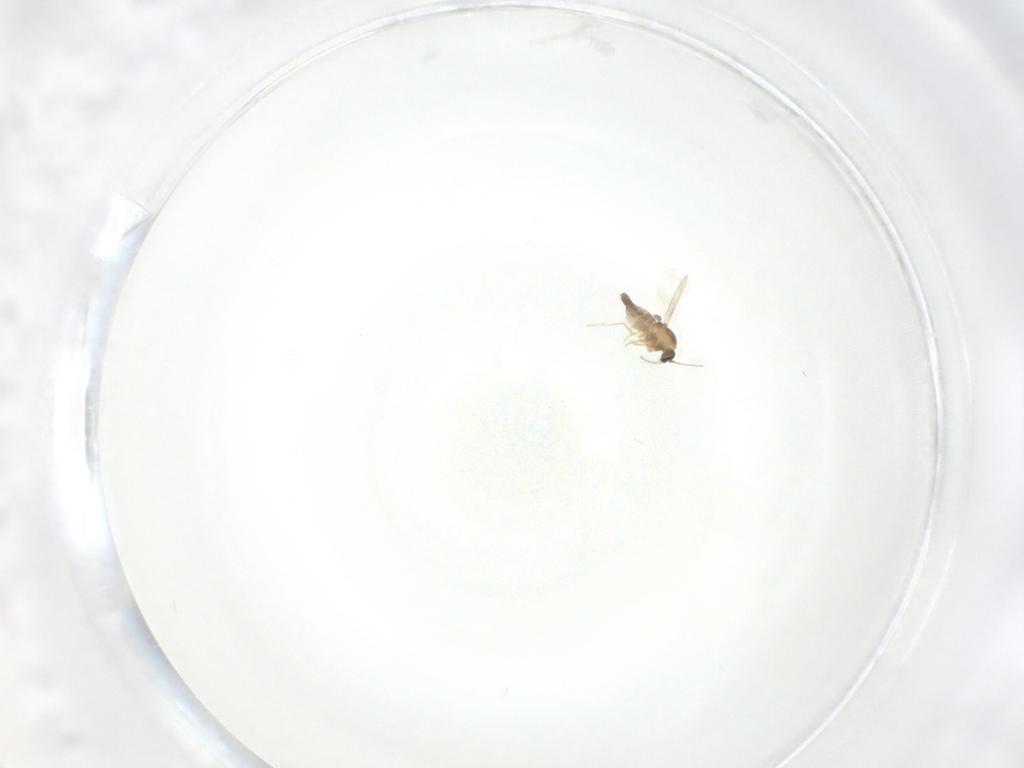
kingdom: Animalia
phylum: Arthropoda
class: Insecta
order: Diptera
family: Ceratopogonidae
